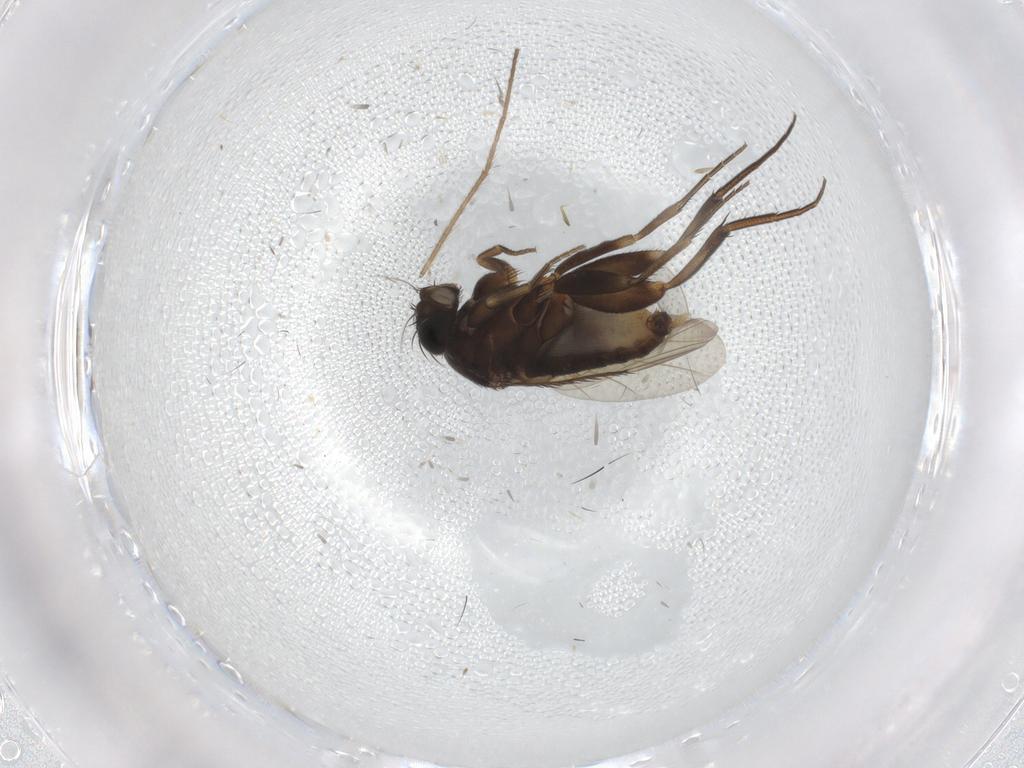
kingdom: Animalia
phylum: Arthropoda
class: Insecta
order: Diptera
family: Phoridae
